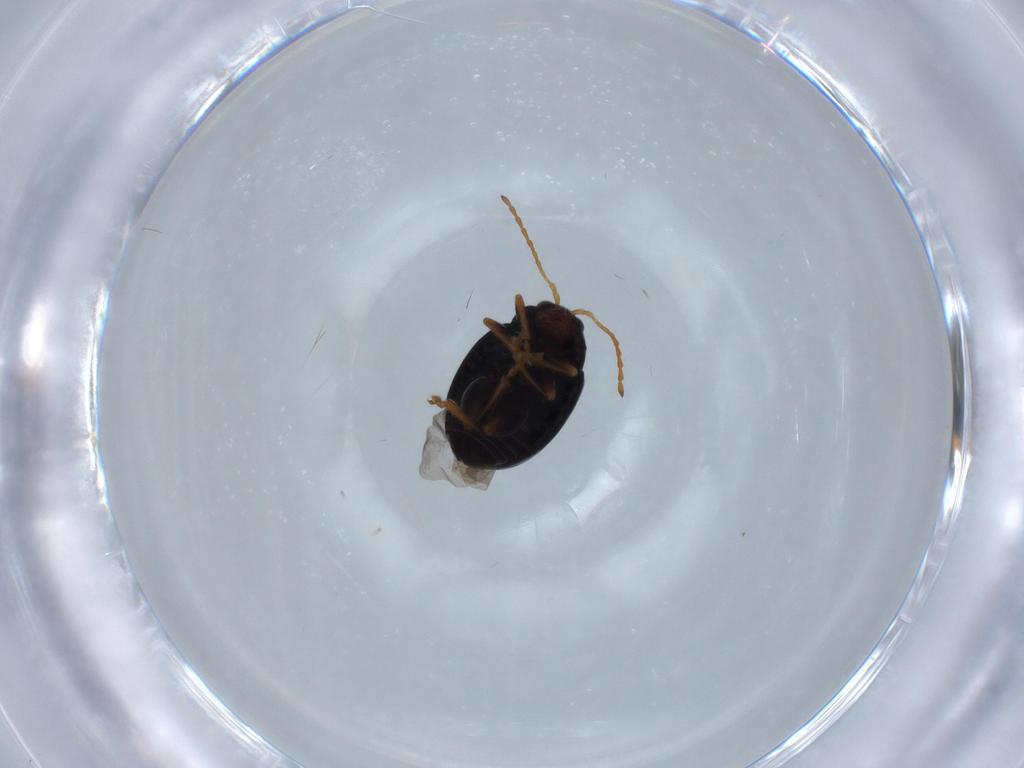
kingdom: Animalia
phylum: Arthropoda
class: Insecta
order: Coleoptera
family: Chrysomelidae
